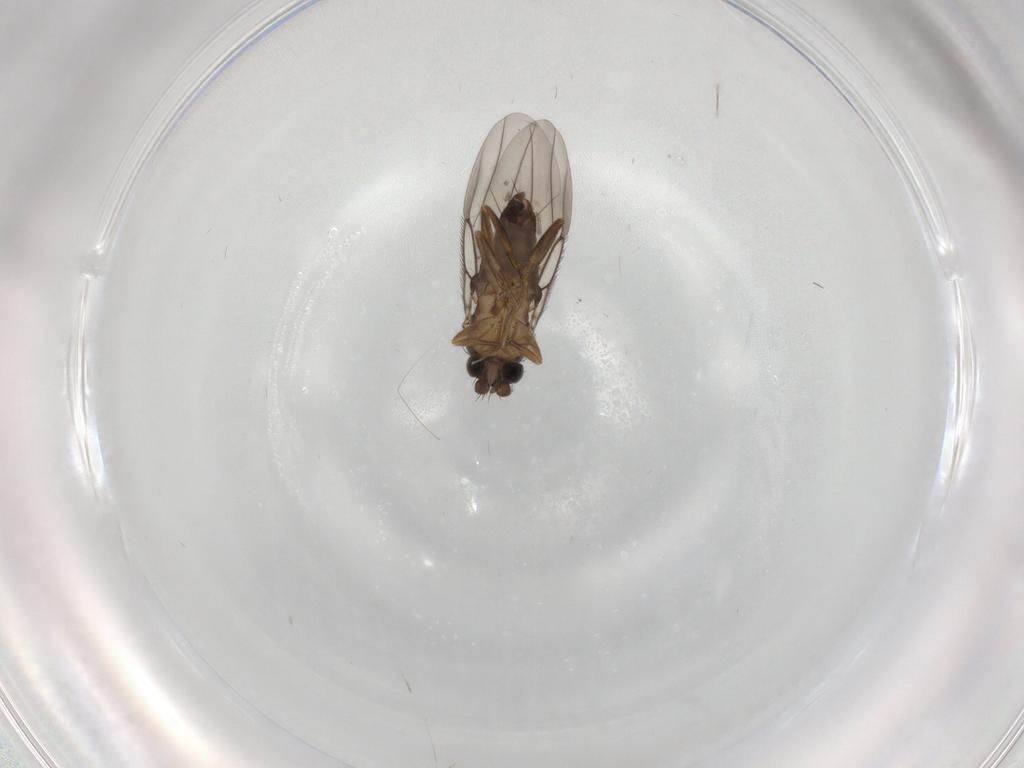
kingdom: Animalia
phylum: Arthropoda
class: Insecta
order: Diptera
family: Phoridae
